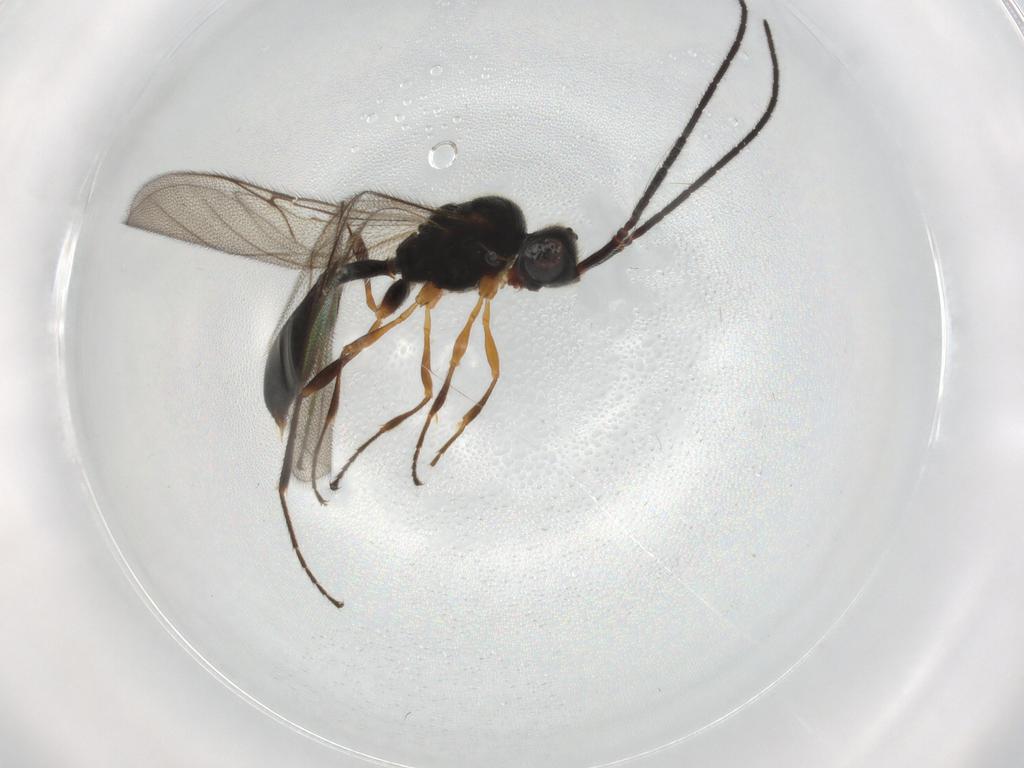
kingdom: Animalia
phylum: Arthropoda
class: Insecta
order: Hymenoptera
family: Diapriidae
